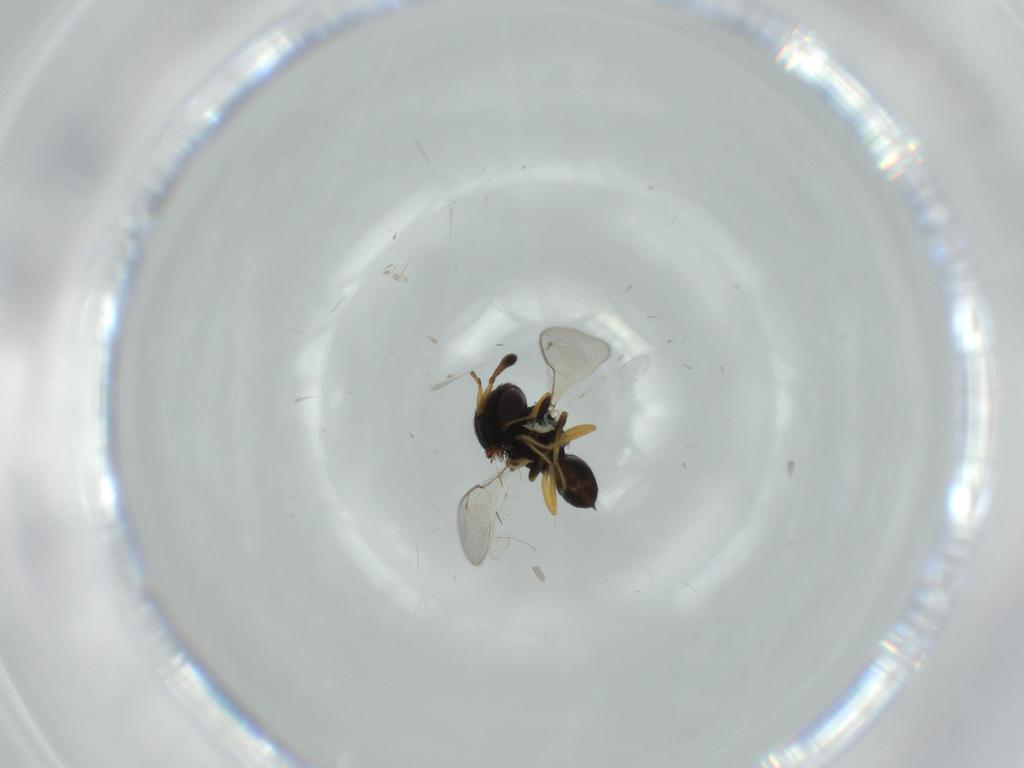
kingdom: Animalia
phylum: Arthropoda
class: Insecta
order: Hymenoptera
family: Pteromalidae
